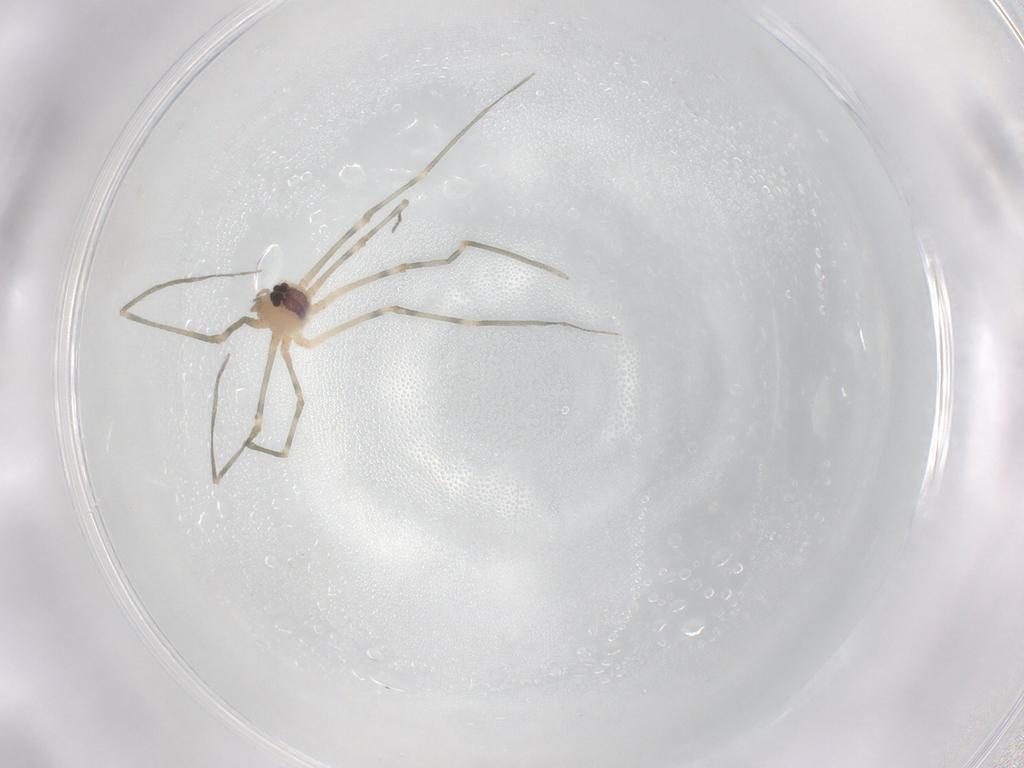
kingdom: Animalia
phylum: Arthropoda
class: Arachnida
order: Araneae
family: Pholcidae
